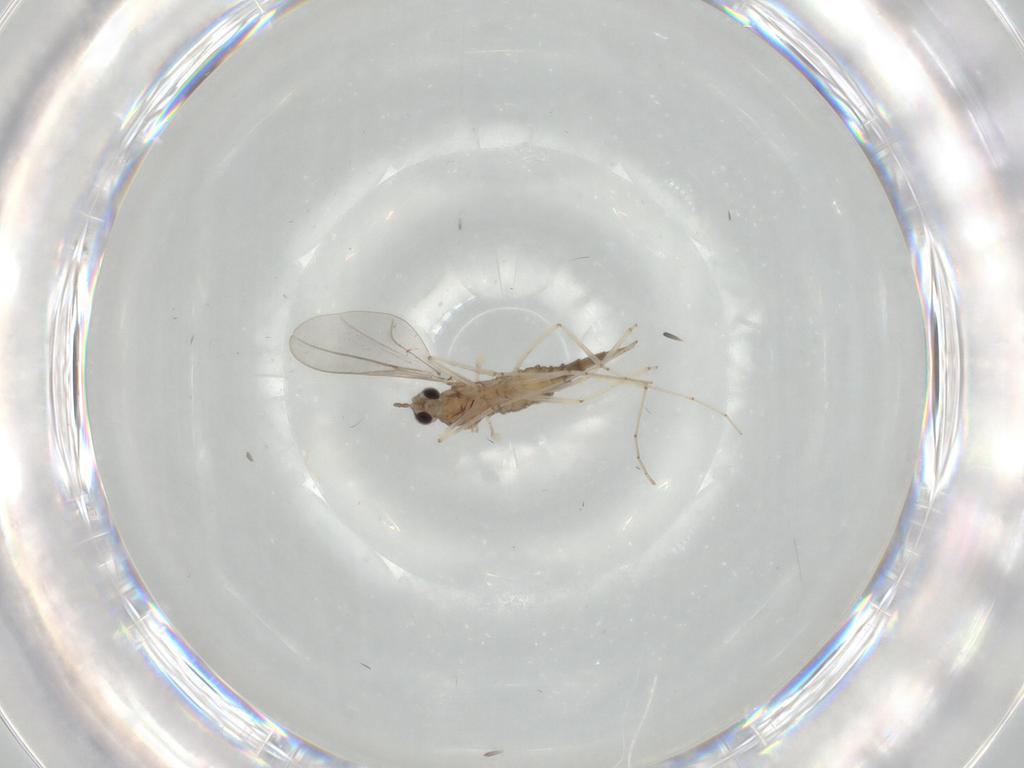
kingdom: Animalia
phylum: Arthropoda
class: Insecta
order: Diptera
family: Cecidomyiidae
